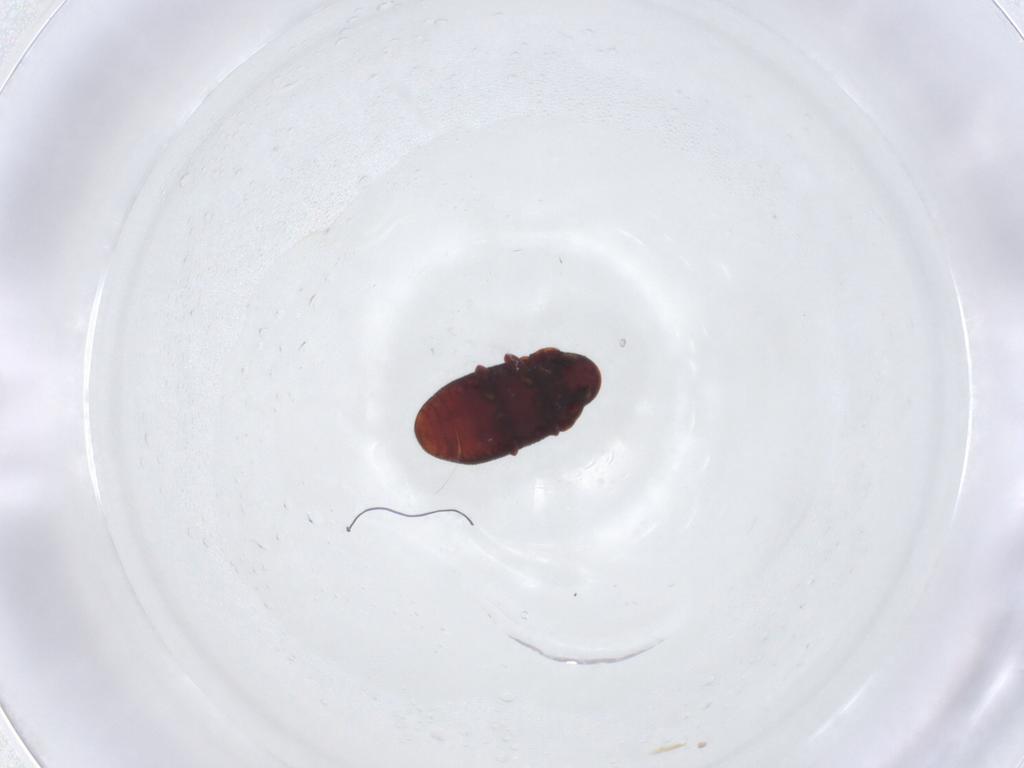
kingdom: Animalia
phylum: Arthropoda
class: Insecta
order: Coleoptera
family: Ptinidae
